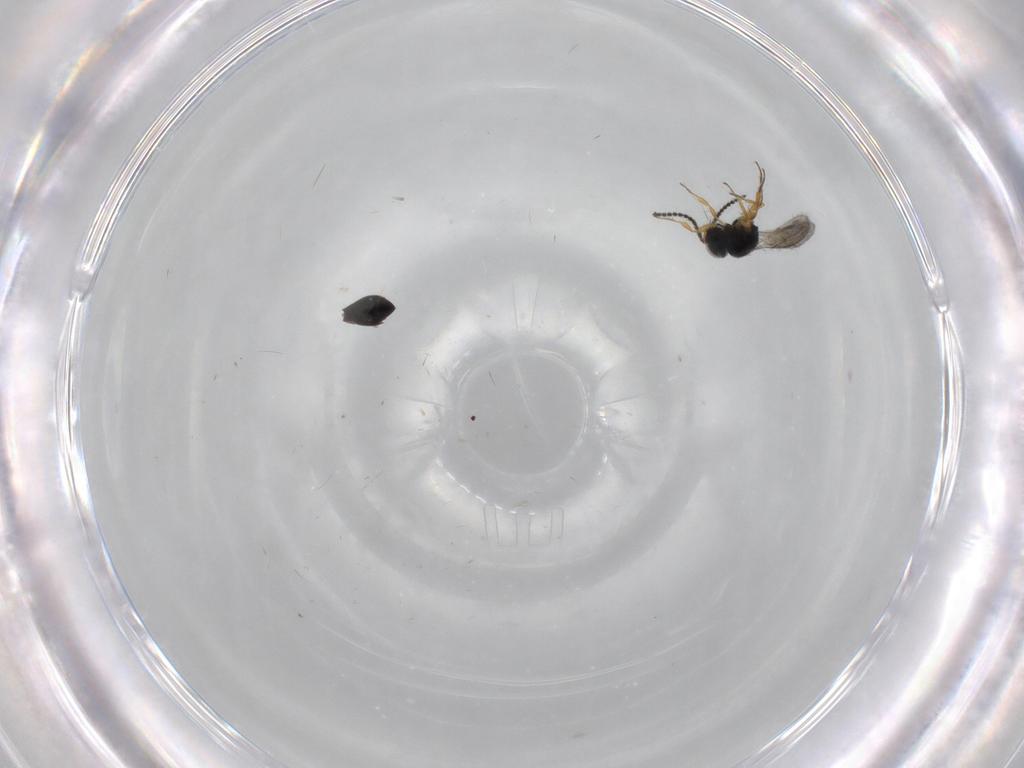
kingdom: Animalia
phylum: Arthropoda
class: Insecta
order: Hymenoptera
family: Scelionidae
